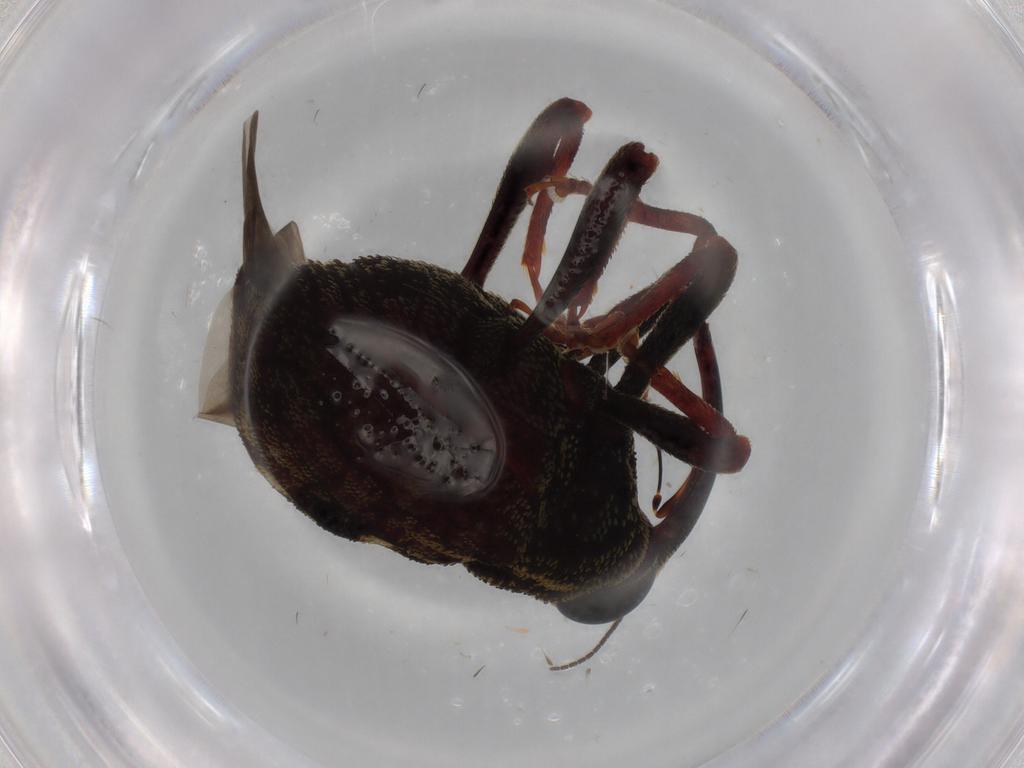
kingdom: Animalia
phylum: Arthropoda
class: Insecta
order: Coleoptera
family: Curculionidae
